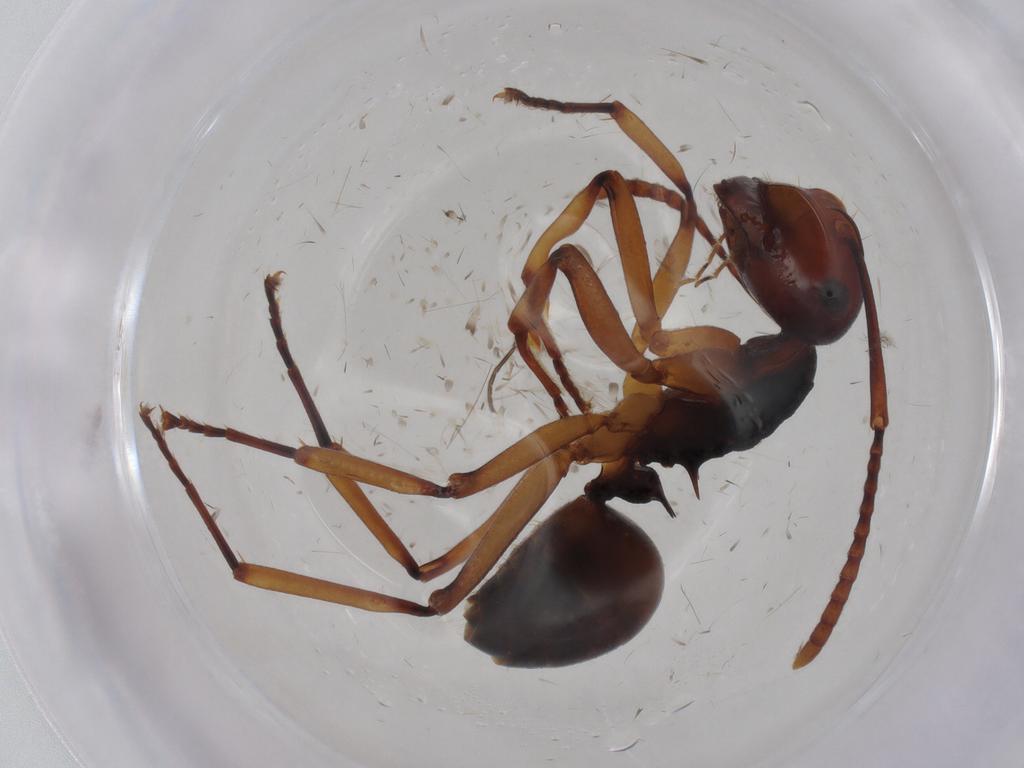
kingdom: Animalia
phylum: Arthropoda
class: Insecta
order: Hymenoptera
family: Formicidae
